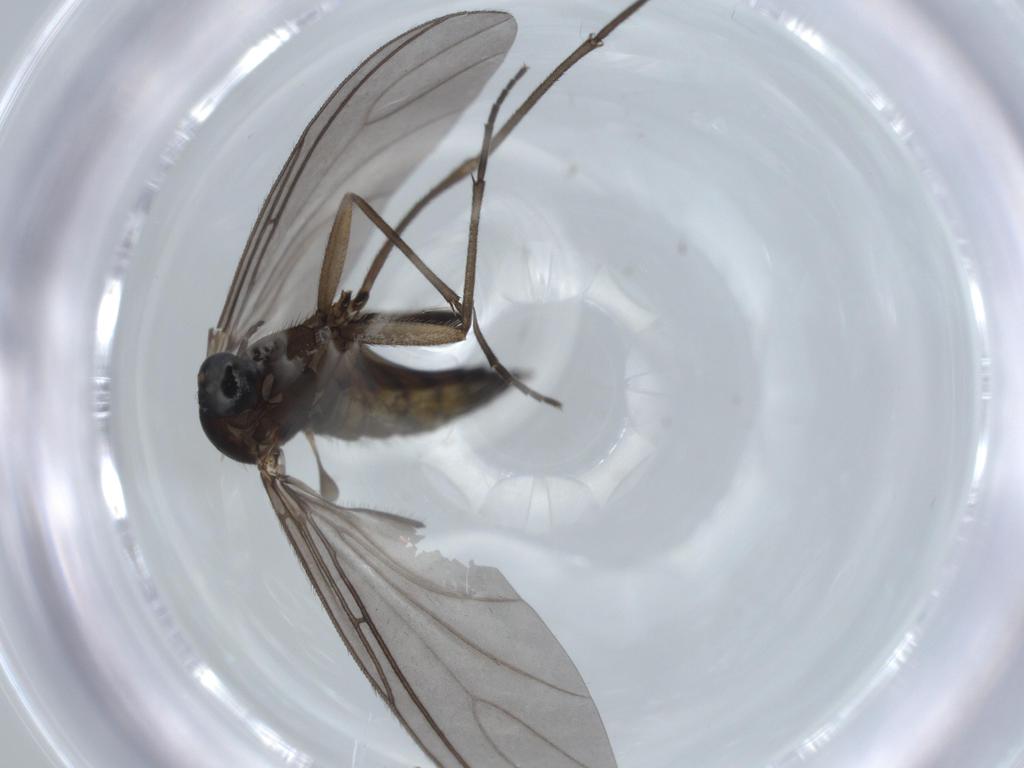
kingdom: Animalia
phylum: Arthropoda
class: Insecta
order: Diptera
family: Sciaridae
